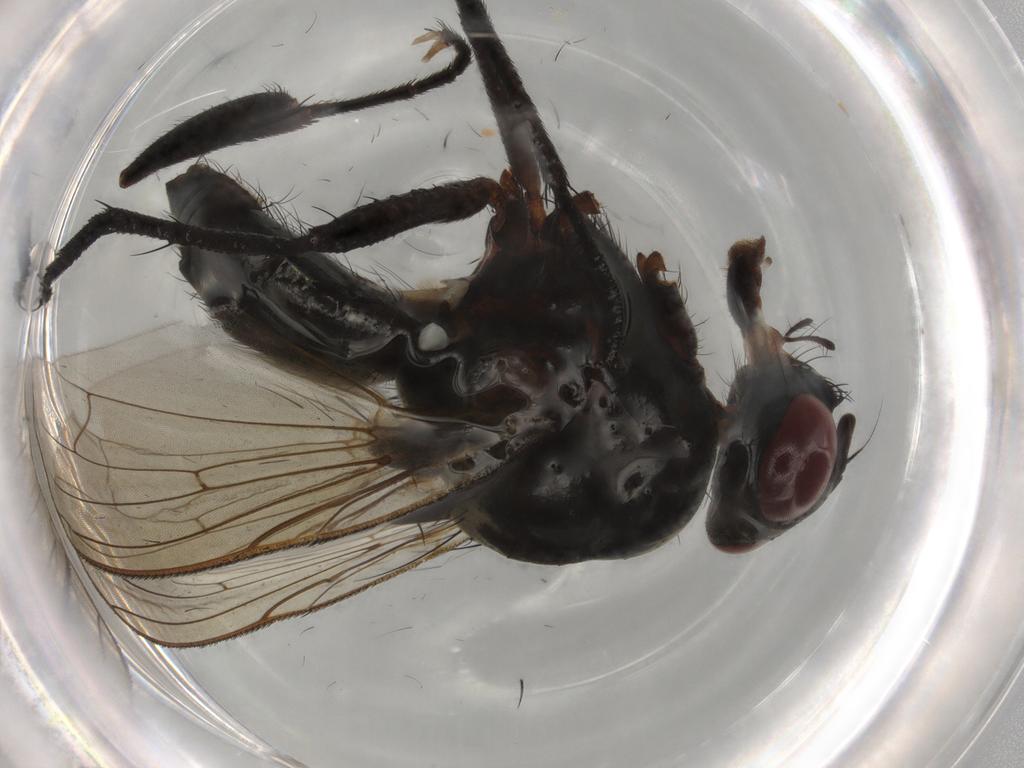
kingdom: Animalia
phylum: Arthropoda
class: Insecta
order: Diptera
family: Anthomyiidae
